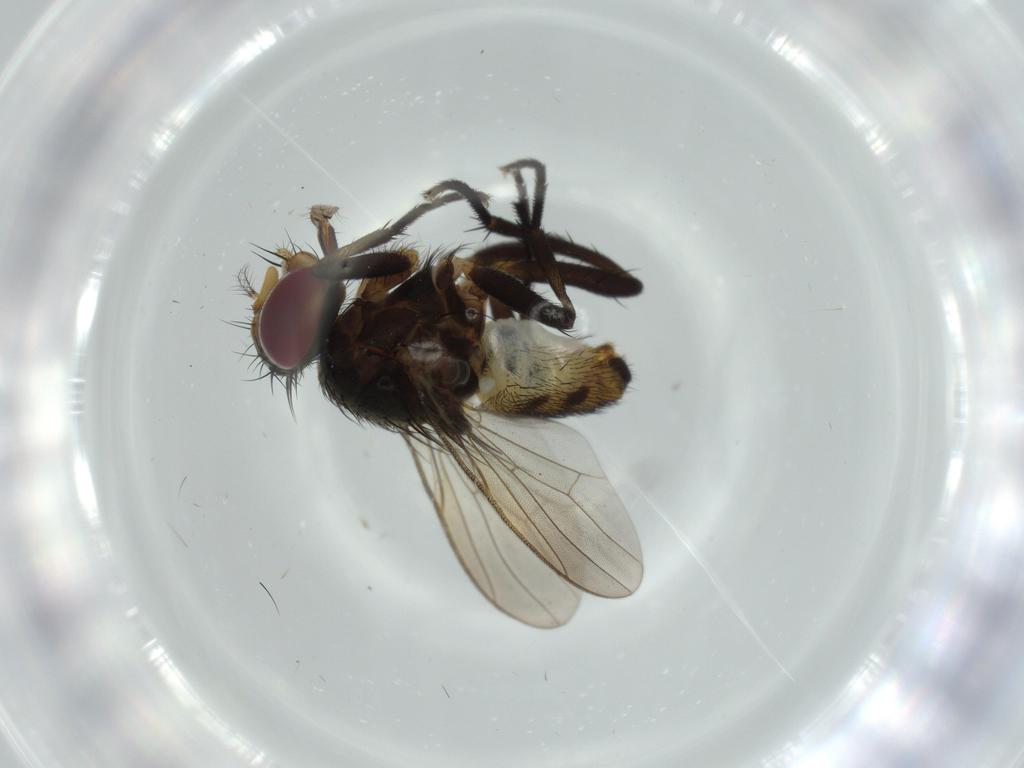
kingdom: Animalia
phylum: Arthropoda
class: Insecta
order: Diptera
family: Anthomyiidae
